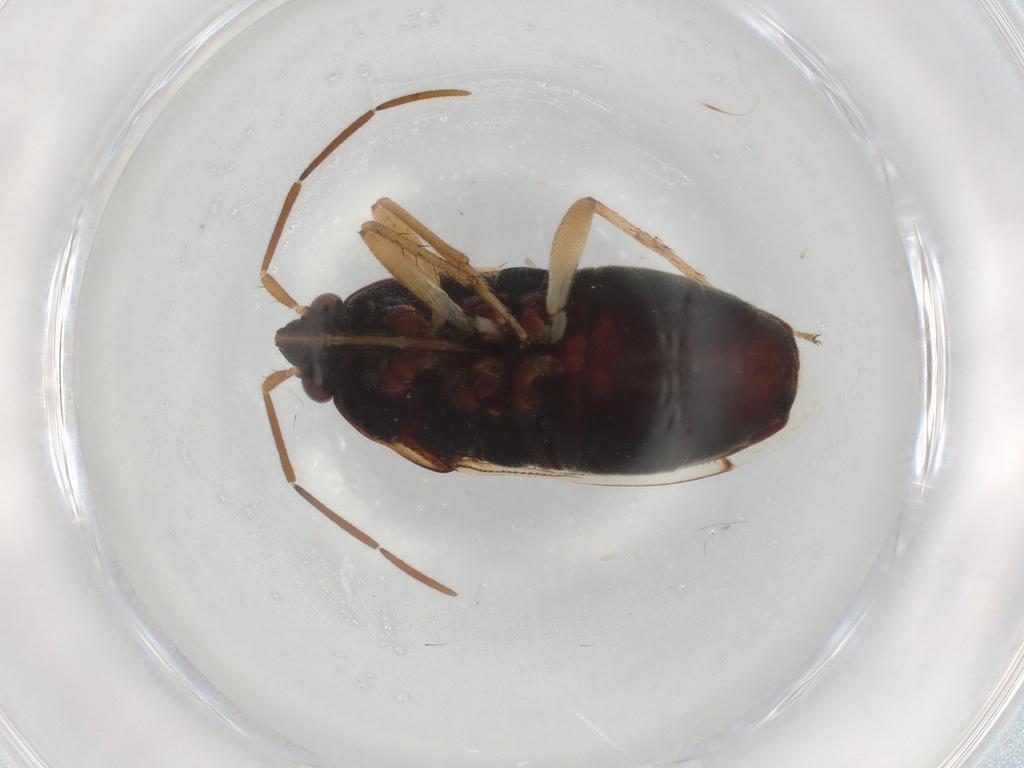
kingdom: Animalia
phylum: Arthropoda
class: Insecta
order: Hemiptera
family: Rhyparochromidae
